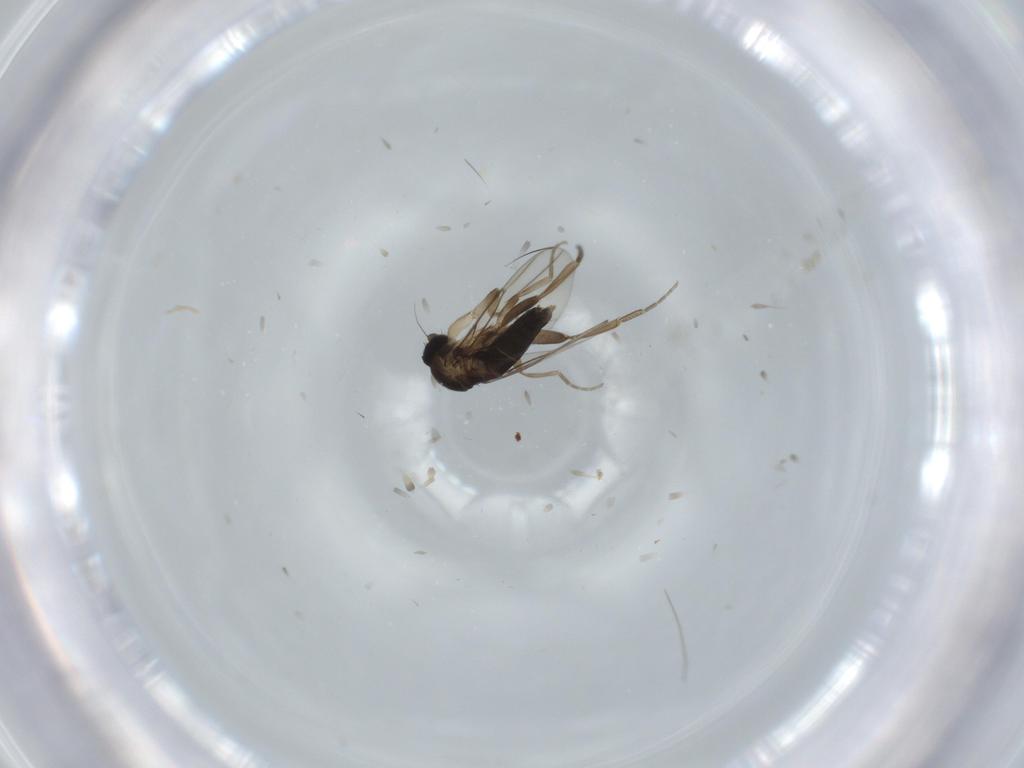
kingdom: Animalia
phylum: Arthropoda
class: Insecta
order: Diptera
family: Phoridae
